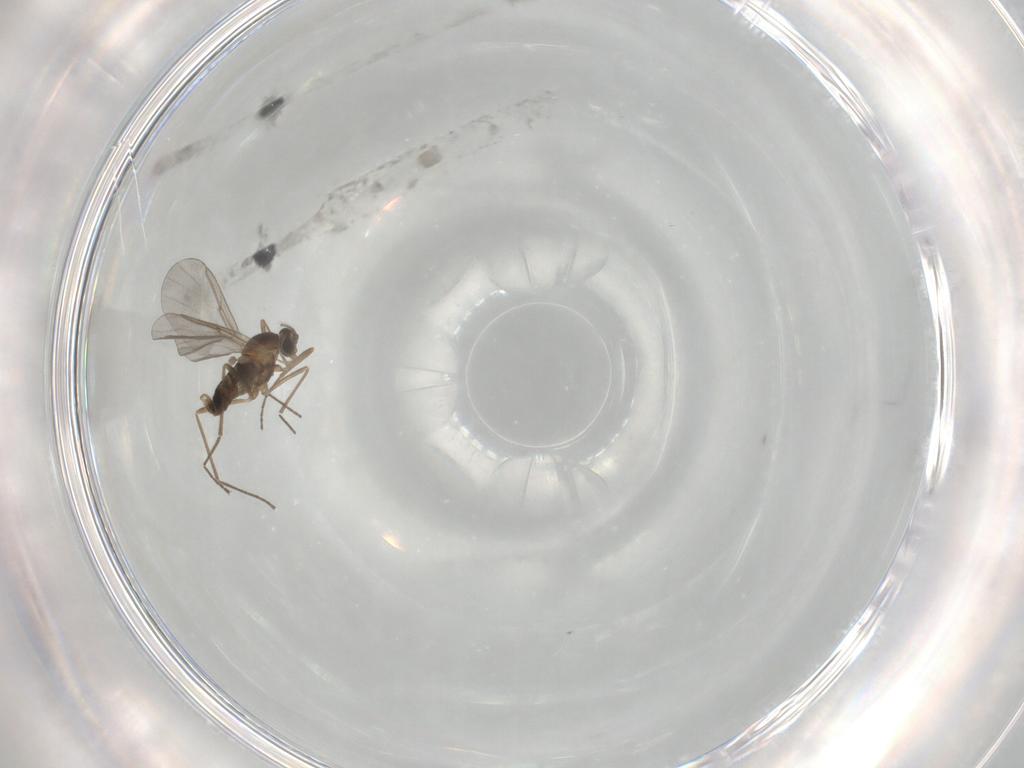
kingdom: Animalia
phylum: Arthropoda
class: Insecta
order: Diptera
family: Cecidomyiidae
